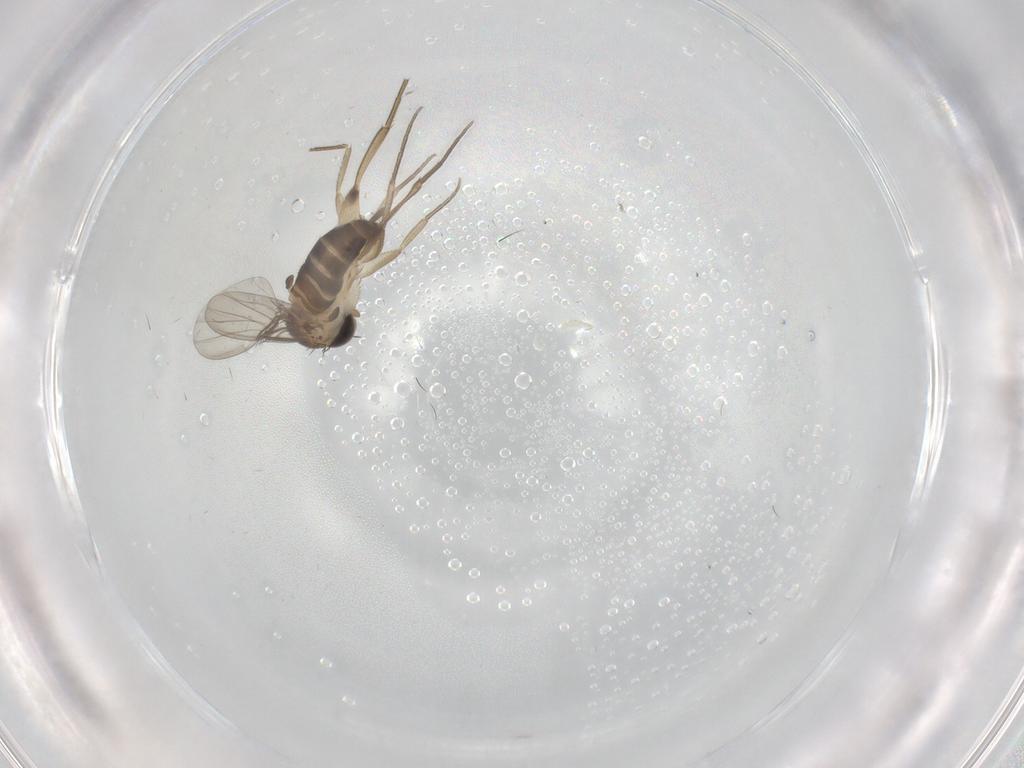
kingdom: Animalia
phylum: Arthropoda
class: Insecta
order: Diptera
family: Phoridae
